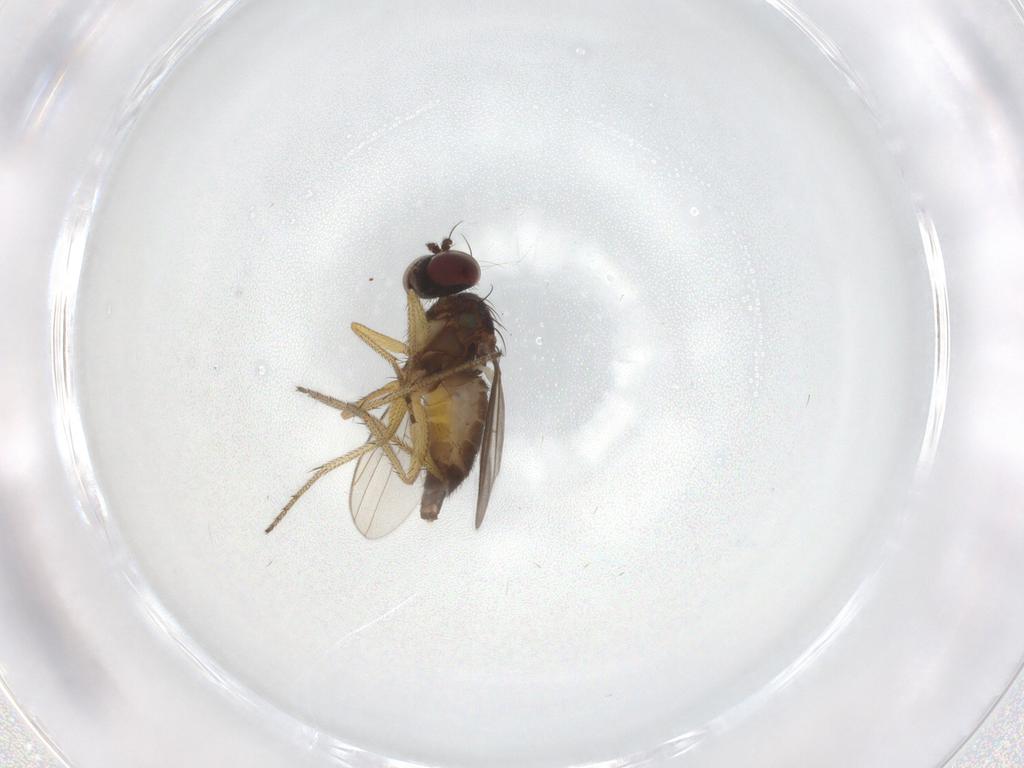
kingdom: Animalia
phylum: Arthropoda
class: Insecta
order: Diptera
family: Dolichopodidae
